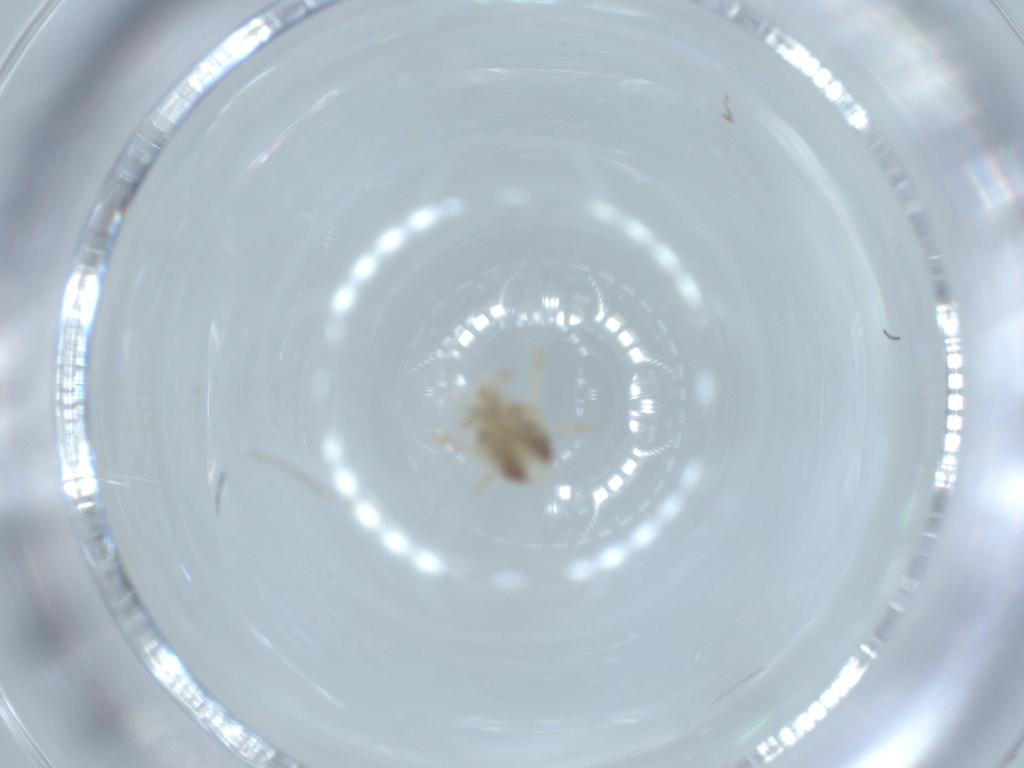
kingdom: Animalia
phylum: Arthropoda
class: Insecta
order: Hemiptera
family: Acanaloniidae
